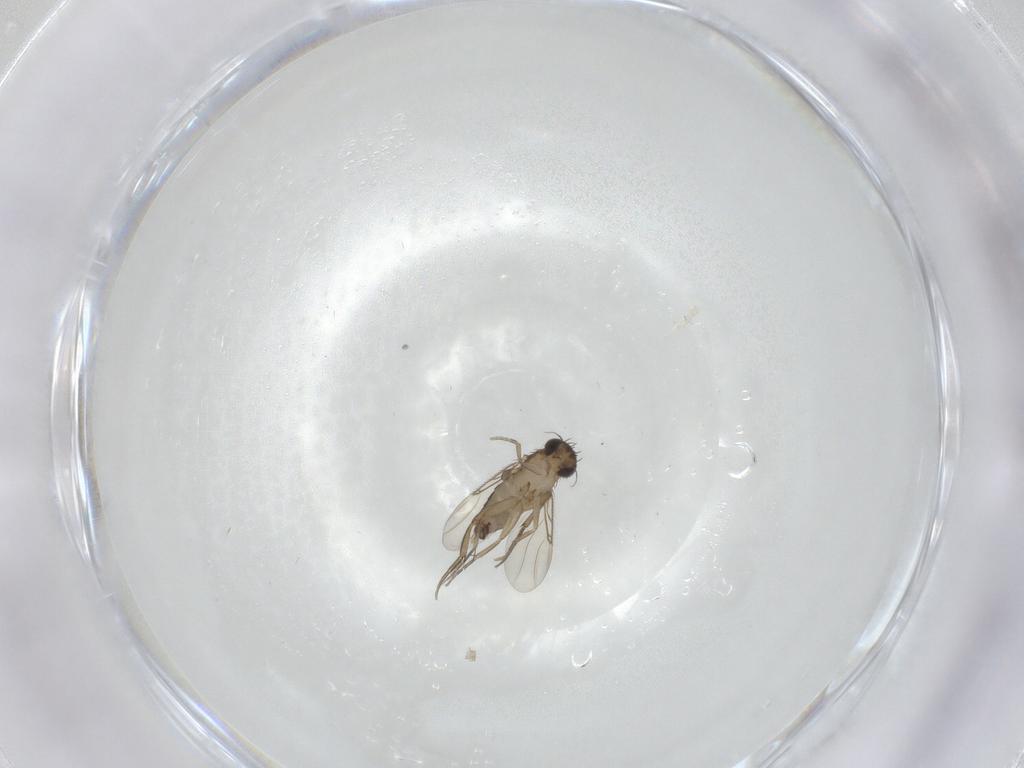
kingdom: Animalia
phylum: Arthropoda
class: Insecta
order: Diptera
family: Phoridae
